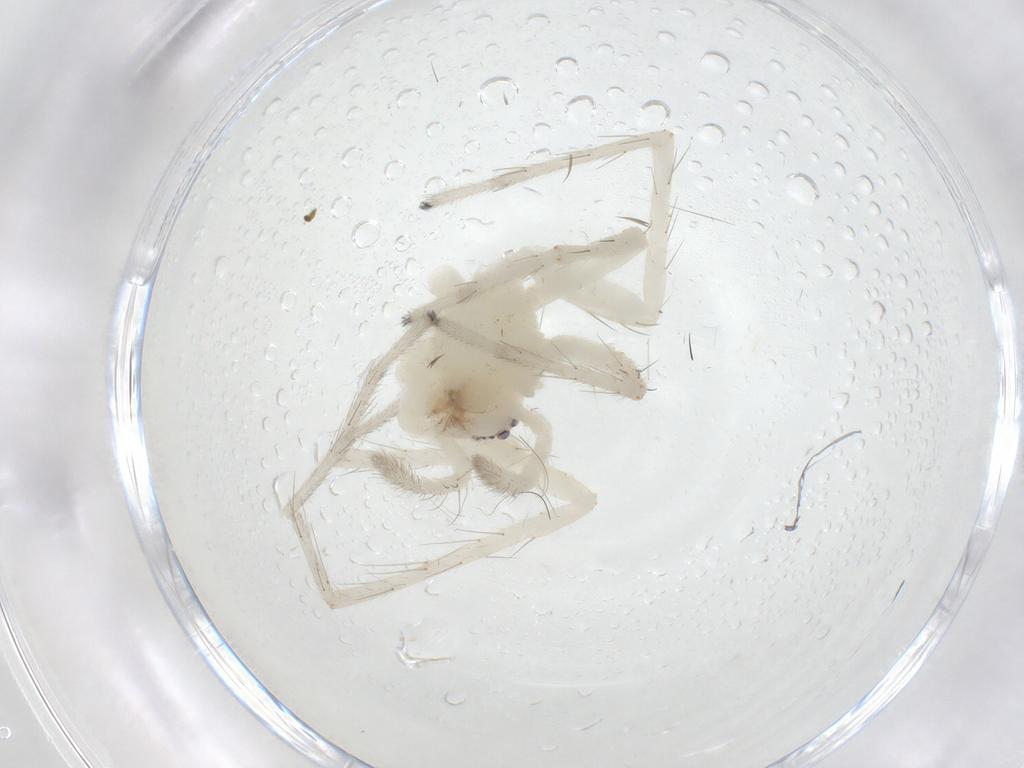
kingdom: Animalia
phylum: Arthropoda
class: Arachnida
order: Araneae
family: Anyphaenidae
